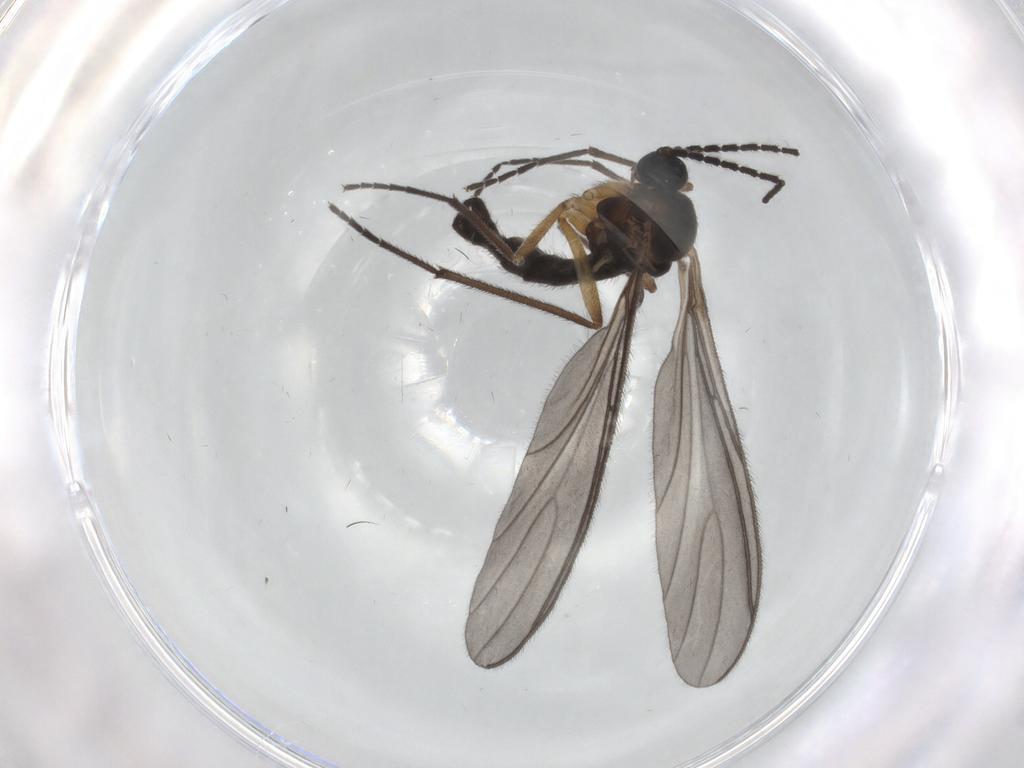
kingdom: Animalia
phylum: Arthropoda
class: Insecta
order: Diptera
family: Sciaridae
